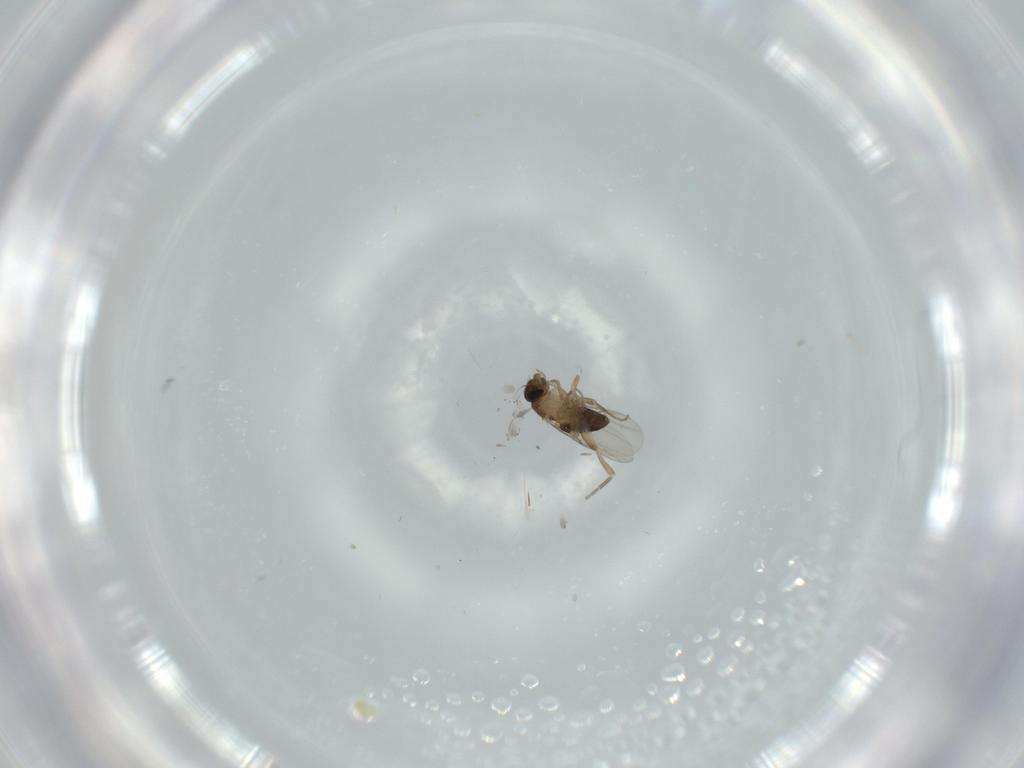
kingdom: Animalia
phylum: Arthropoda
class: Insecta
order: Diptera
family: Phoridae
